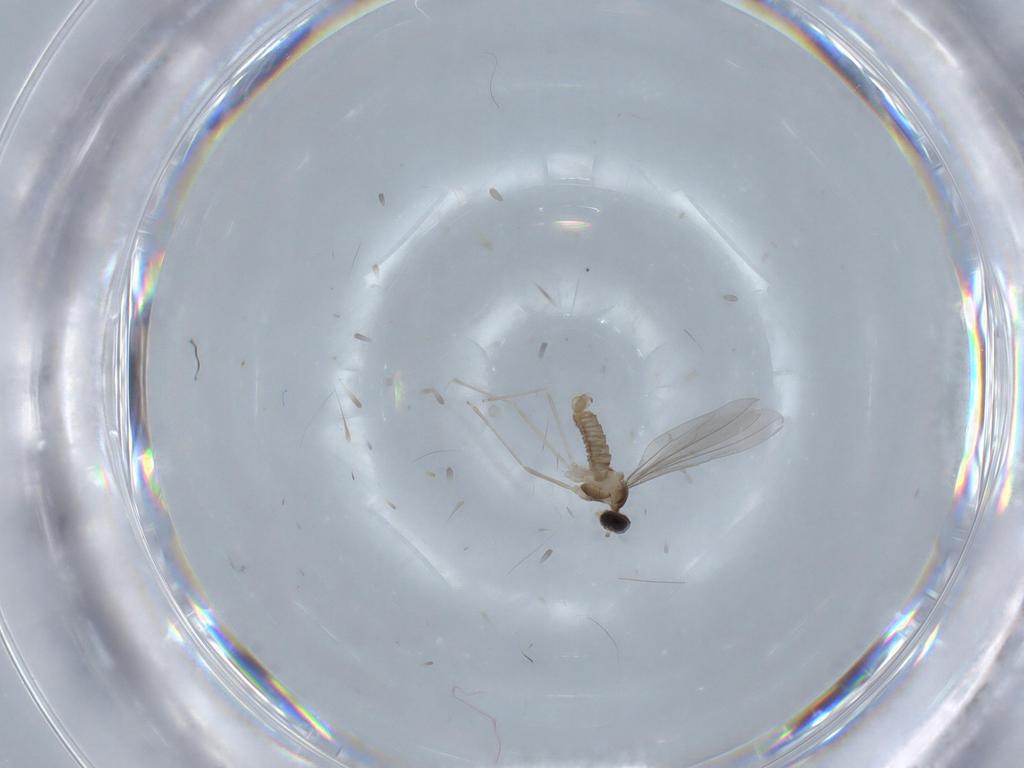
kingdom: Animalia
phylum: Arthropoda
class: Insecta
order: Diptera
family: Cecidomyiidae
